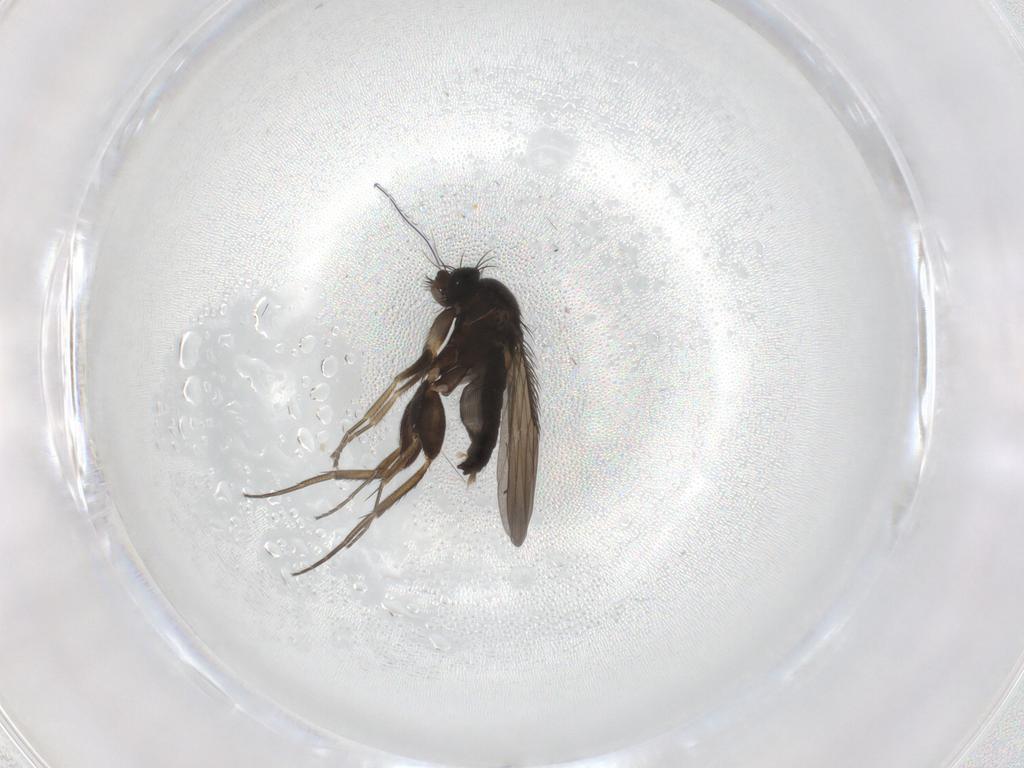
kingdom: Animalia
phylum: Arthropoda
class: Insecta
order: Diptera
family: Phoridae
